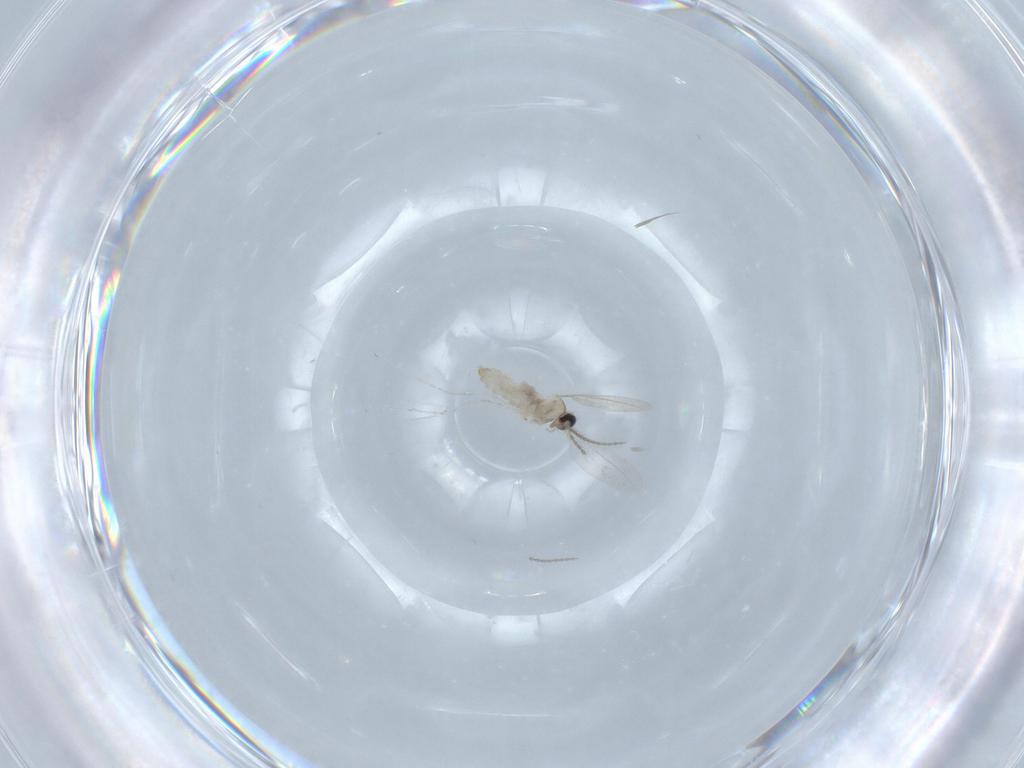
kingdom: Animalia
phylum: Arthropoda
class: Insecta
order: Diptera
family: Cecidomyiidae
